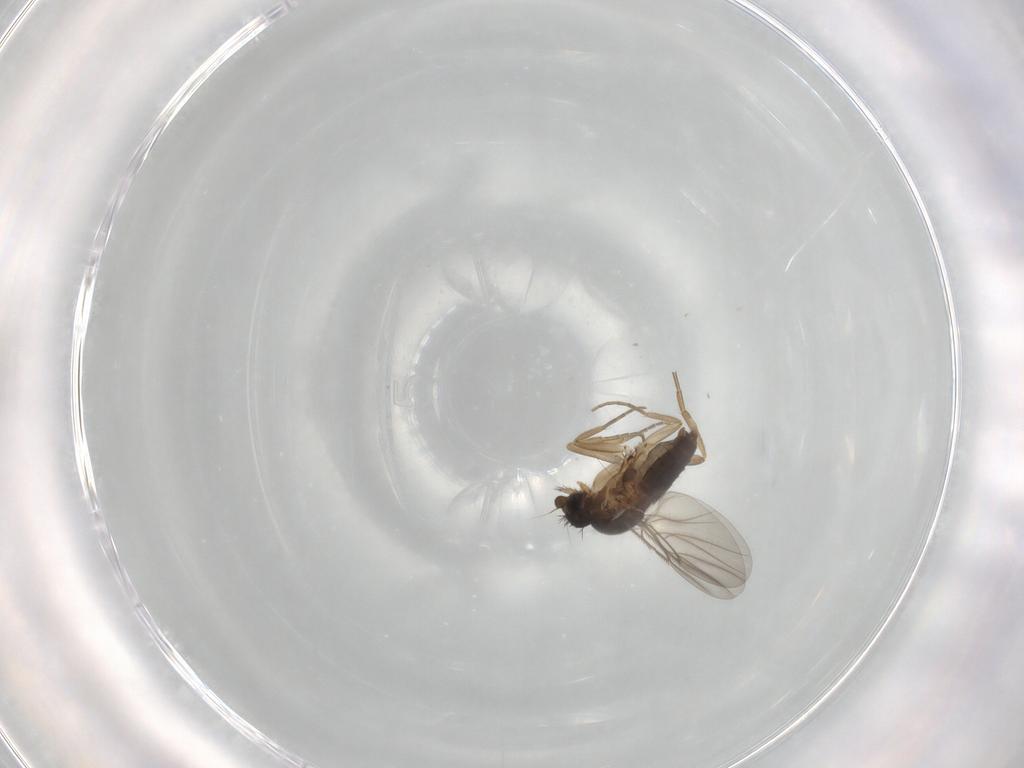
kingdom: Animalia
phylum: Arthropoda
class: Insecta
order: Diptera
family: Phoridae
